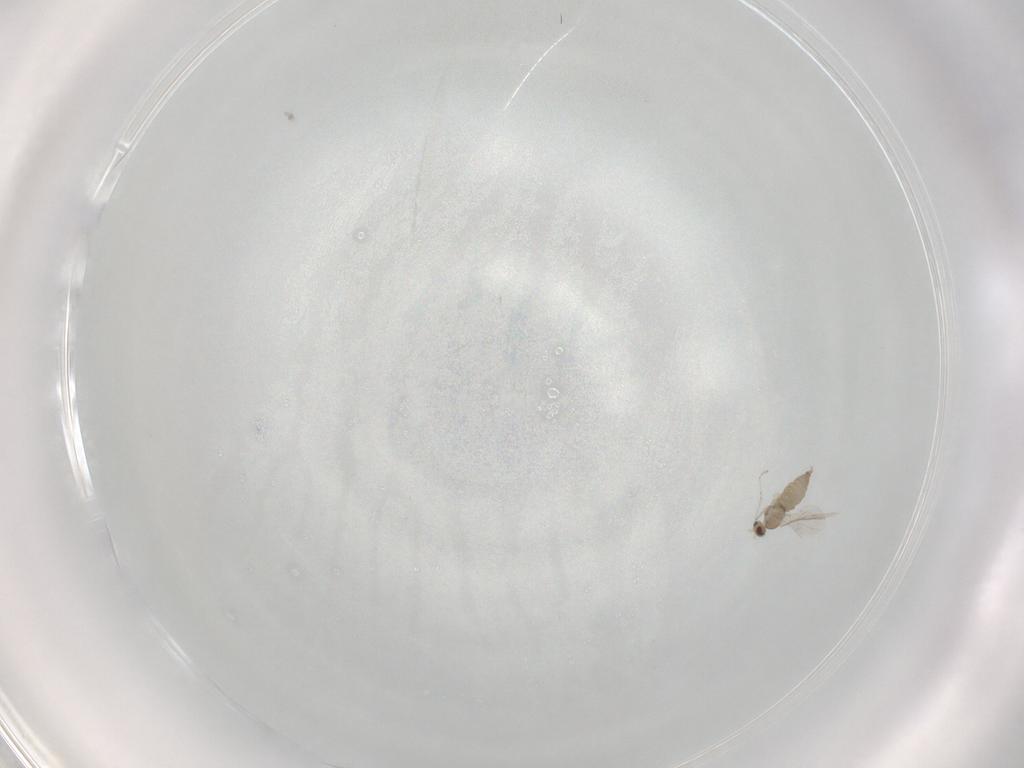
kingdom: Animalia
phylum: Arthropoda
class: Insecta
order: Diptera
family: Cecidomyiidae
